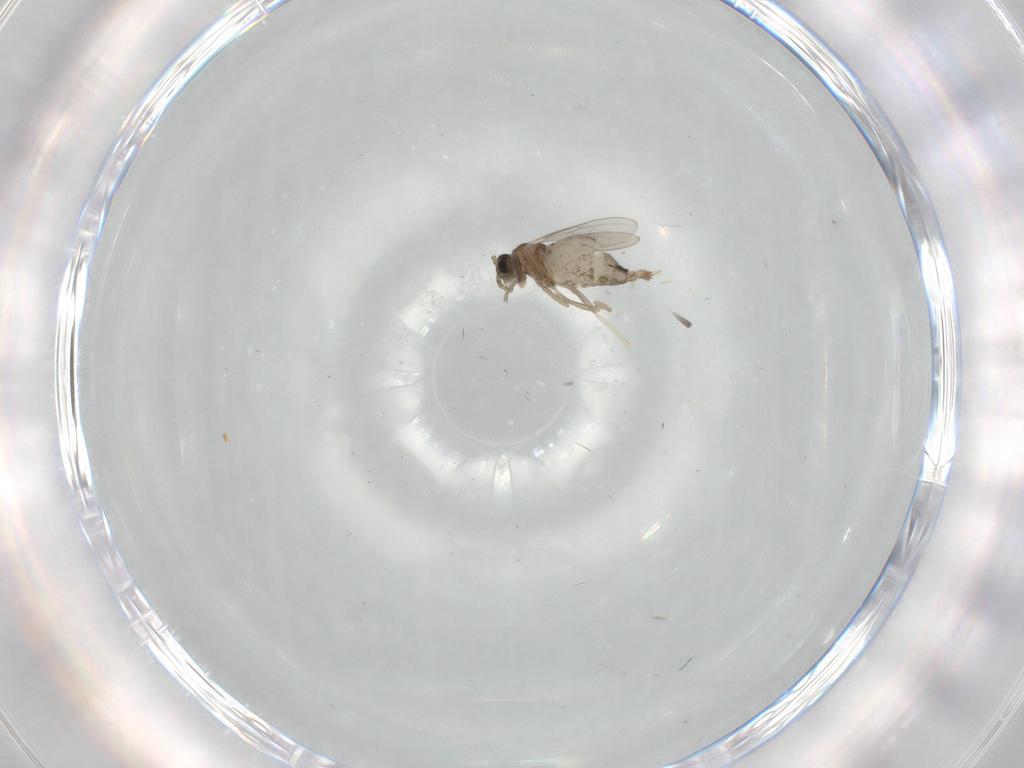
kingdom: Animalia
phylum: Arthropoda
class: Insecta
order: Diptera
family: Cecidomyiidae
